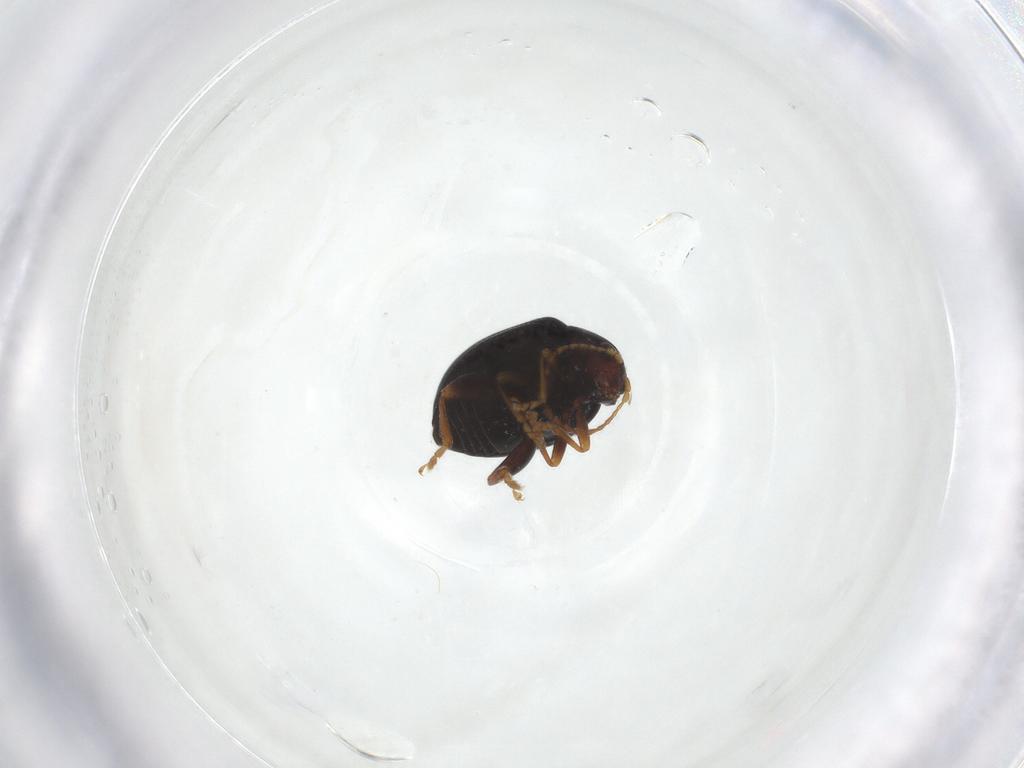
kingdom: Animalia
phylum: Arthropoda
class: Insecta
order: Coleoptera
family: Chrysomelidae
